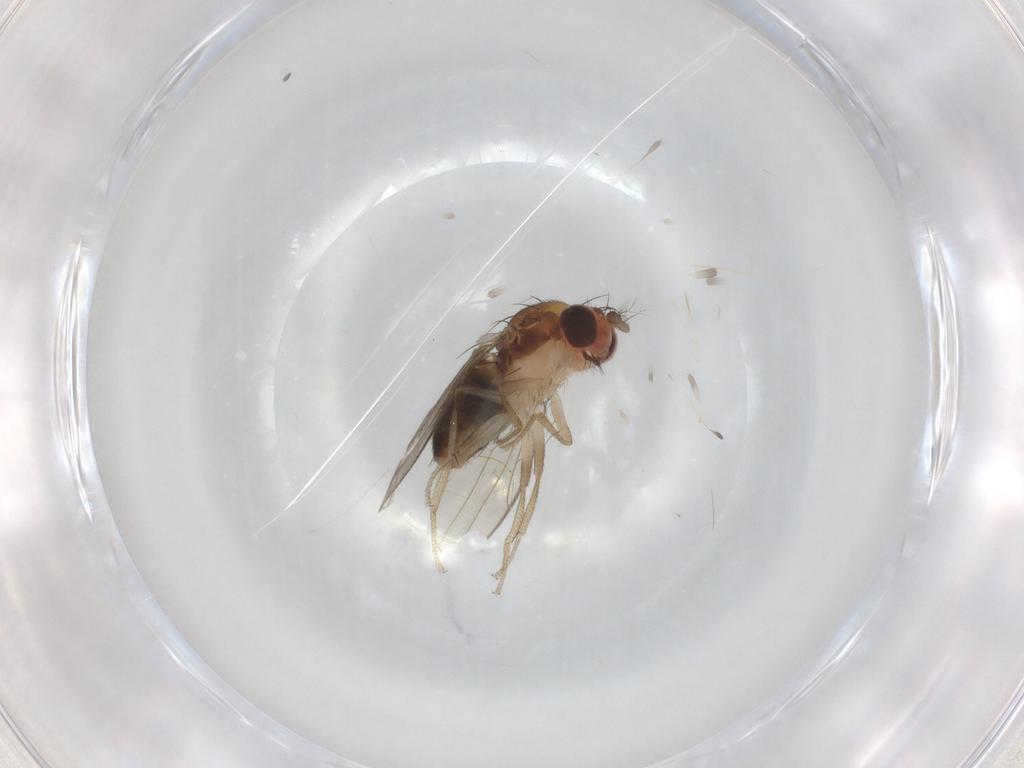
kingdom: Animalia
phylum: Arthropoda
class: Insecta
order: Diptera
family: Drosophilidae
